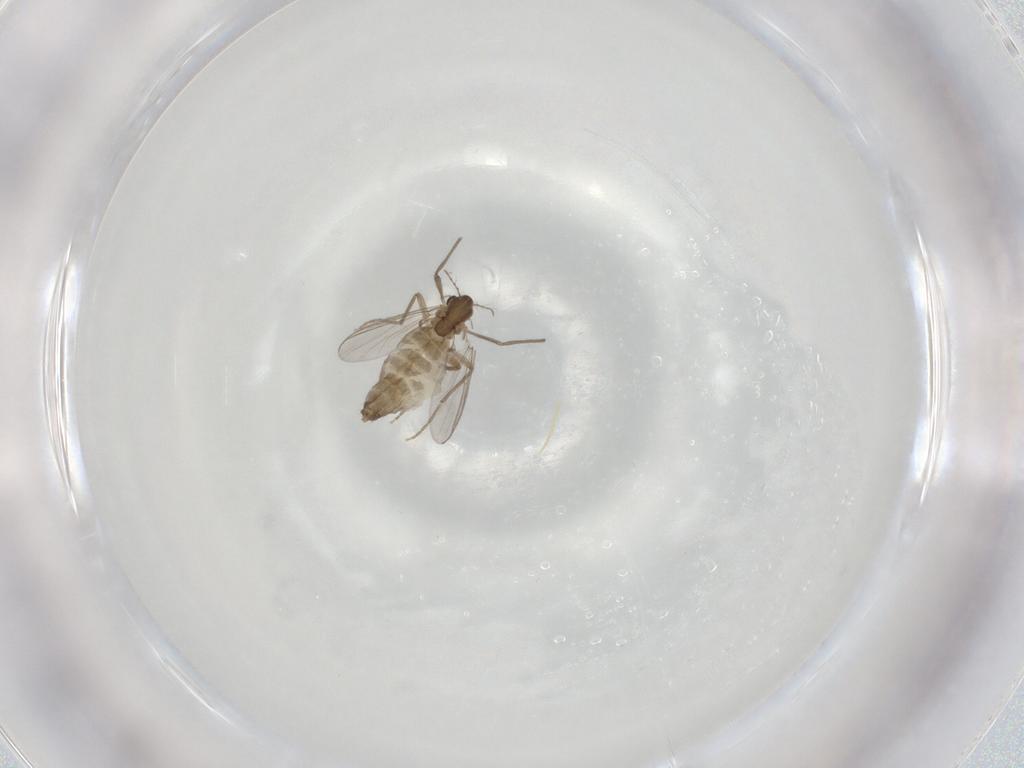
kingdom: Animalia
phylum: Arthropoda
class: Insecta
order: Diptera
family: Chironomidae
